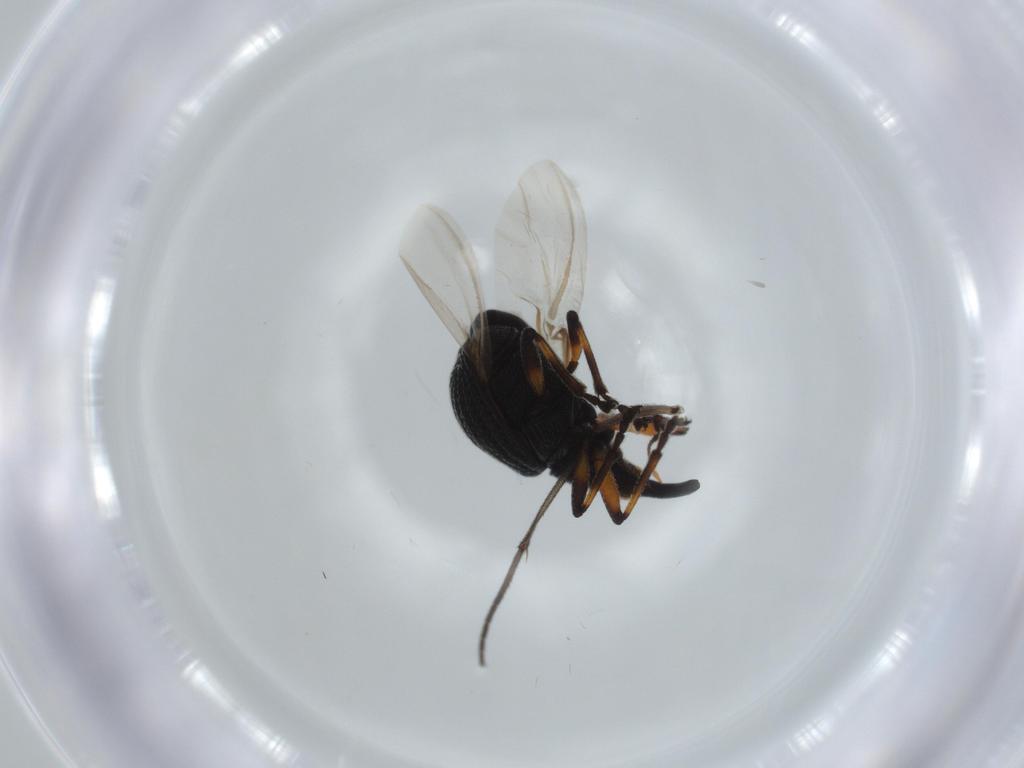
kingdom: Animalia
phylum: Arthropoda
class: Insecta
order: Coleoptera
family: Brentidae
